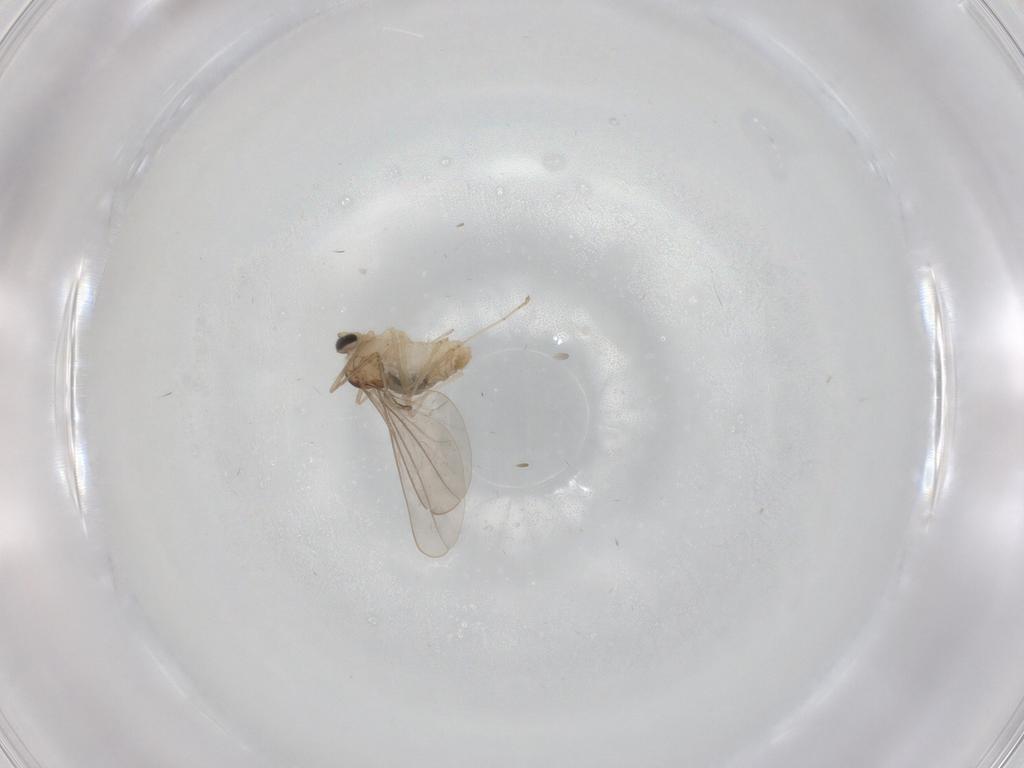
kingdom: Animalia
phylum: Arthropoda
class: Insecta
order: Diptera
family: Cecidomyiidae
